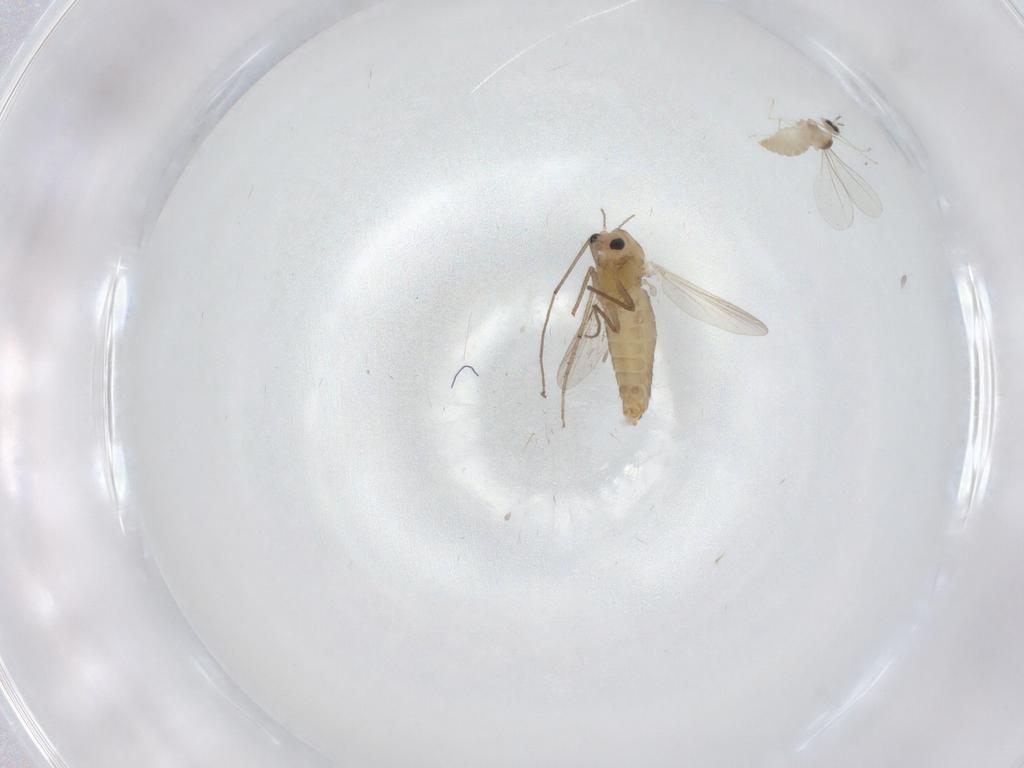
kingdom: Animalia
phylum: Arthropoda
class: Insecta
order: Diptera
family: Chironomidae
